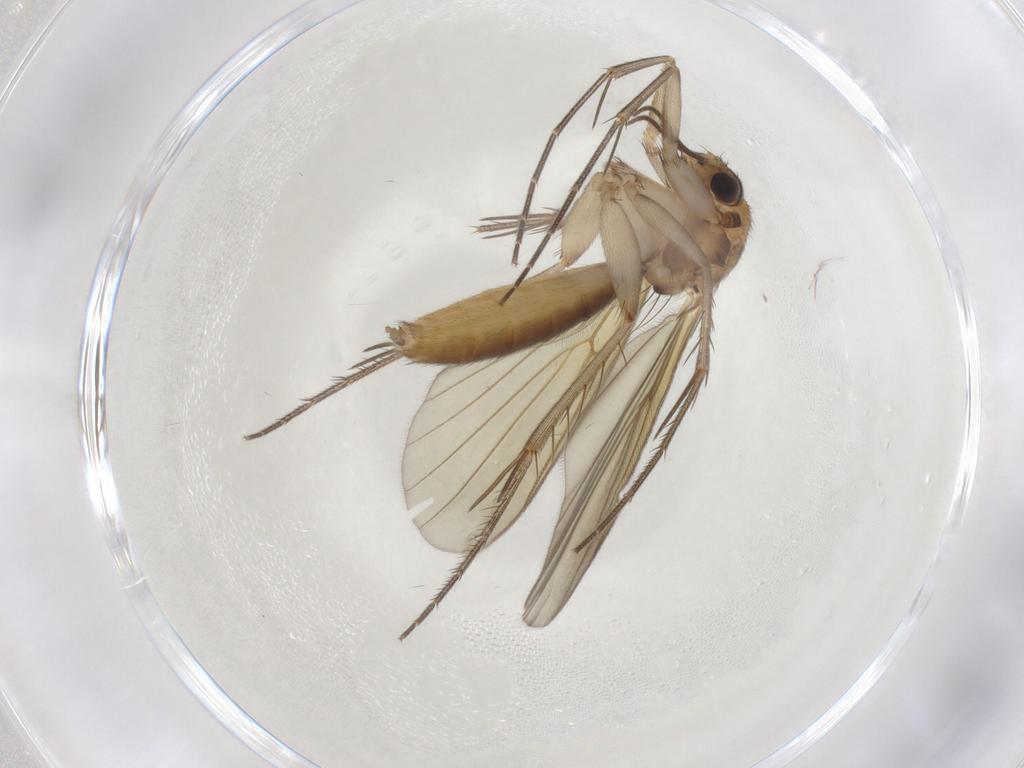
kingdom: Animalia
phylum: Arthropoda
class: Insecta
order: Diptera
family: Mycetophilidae
